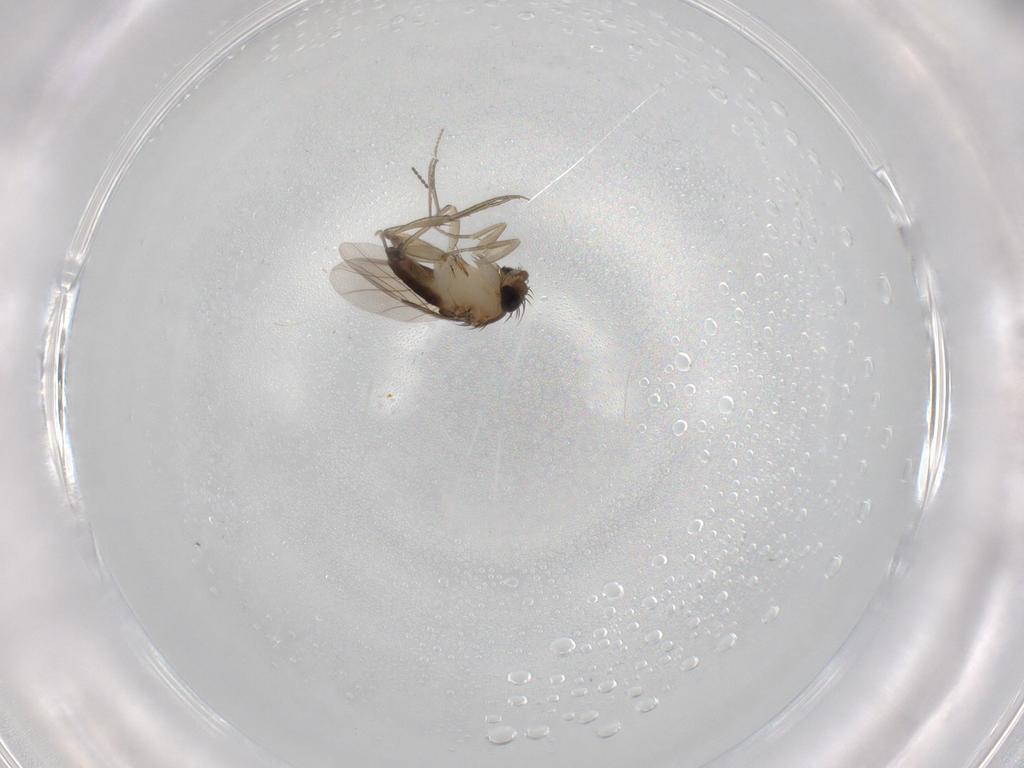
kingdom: Animalia
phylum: Arthropoda
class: Insecta
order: Diptera
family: Phoridae
